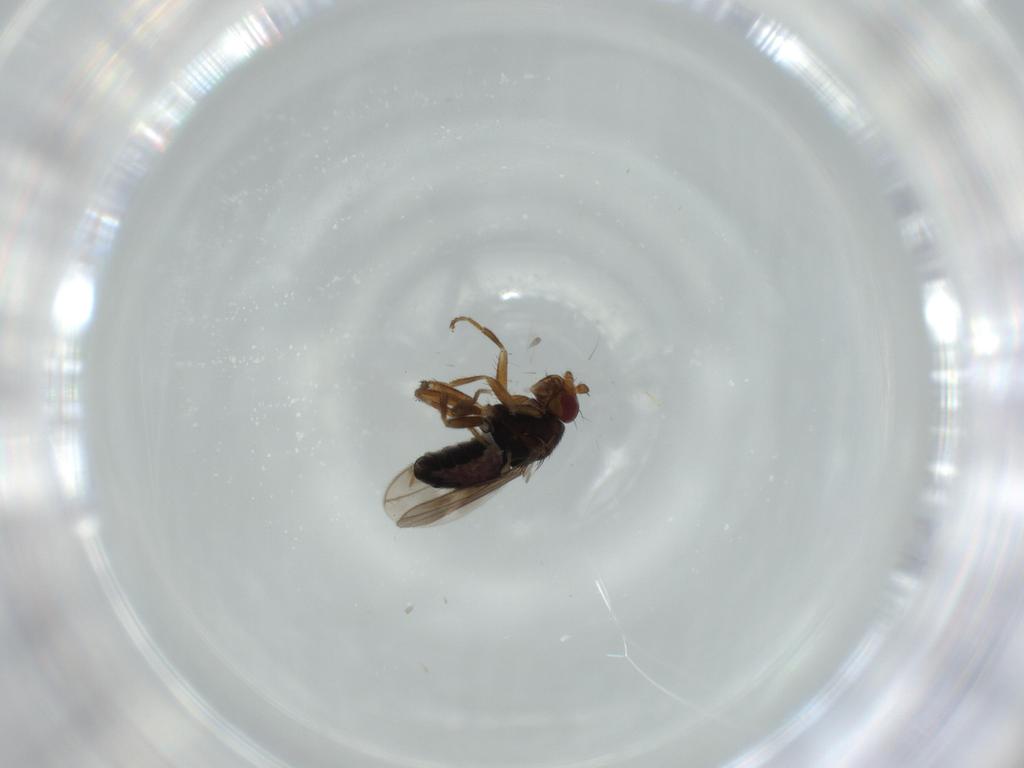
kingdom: Animalia
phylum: Arthropoda
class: Insecta
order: Diptera
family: Sphaeroceridae
